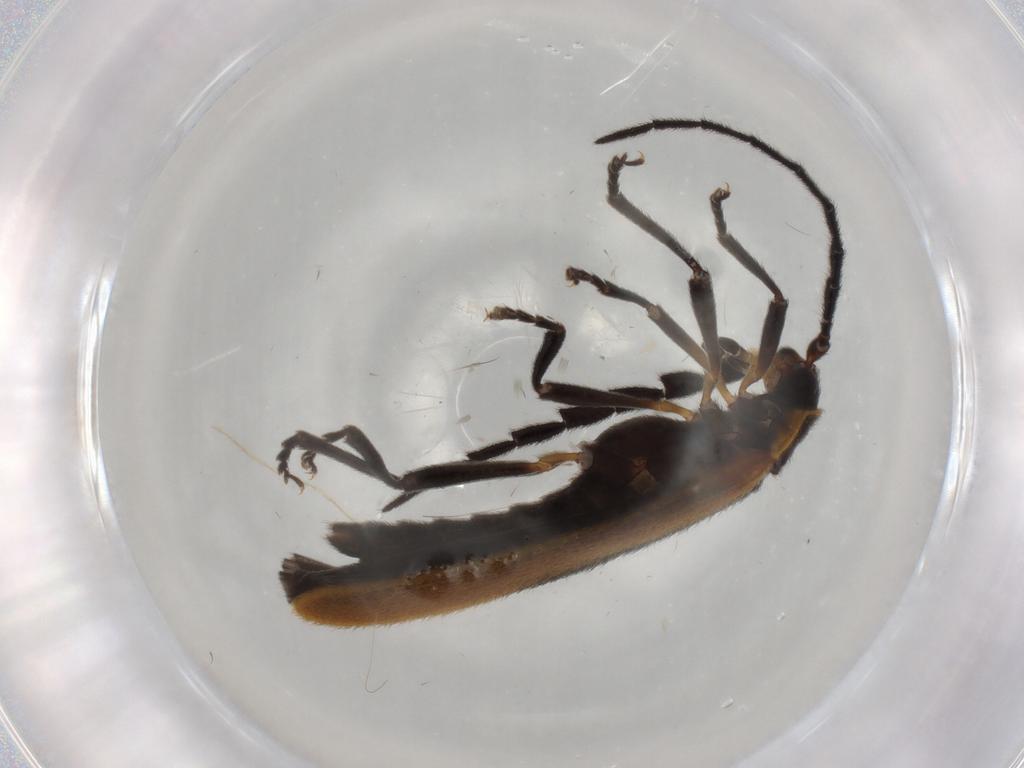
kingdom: Animalia
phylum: Arthropoda
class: Insecta
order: Coleoptera
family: Lycidae
